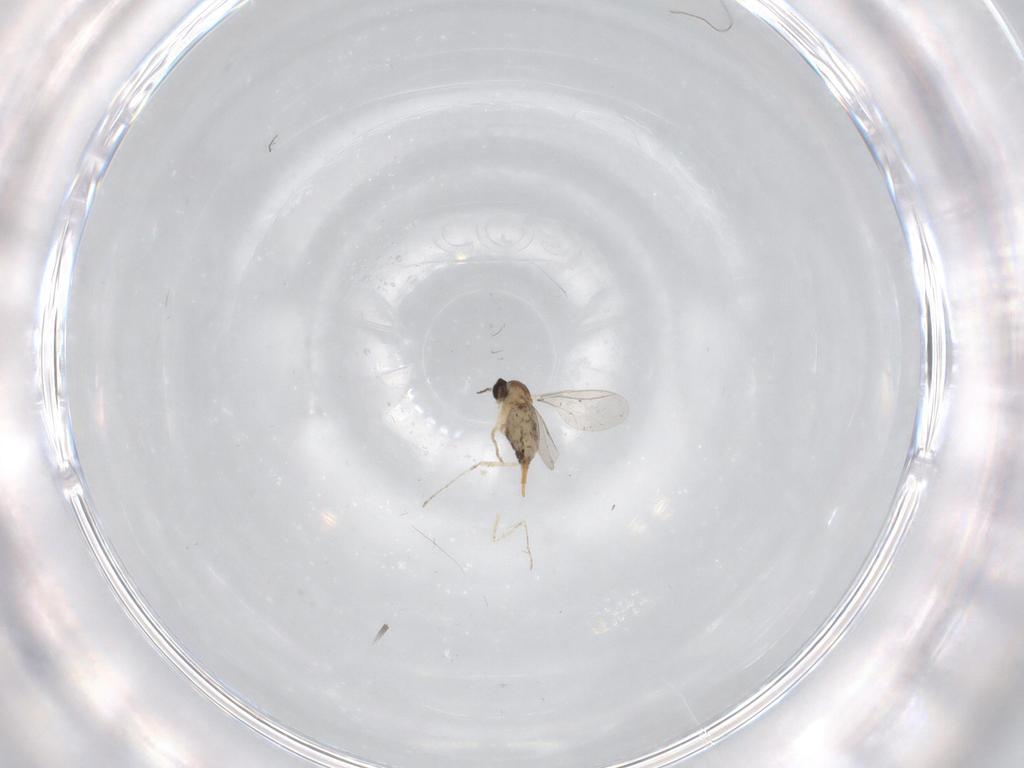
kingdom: Animalia
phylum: Arthropoda
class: Insecta
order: Diptera
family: Cecidomyiidae
